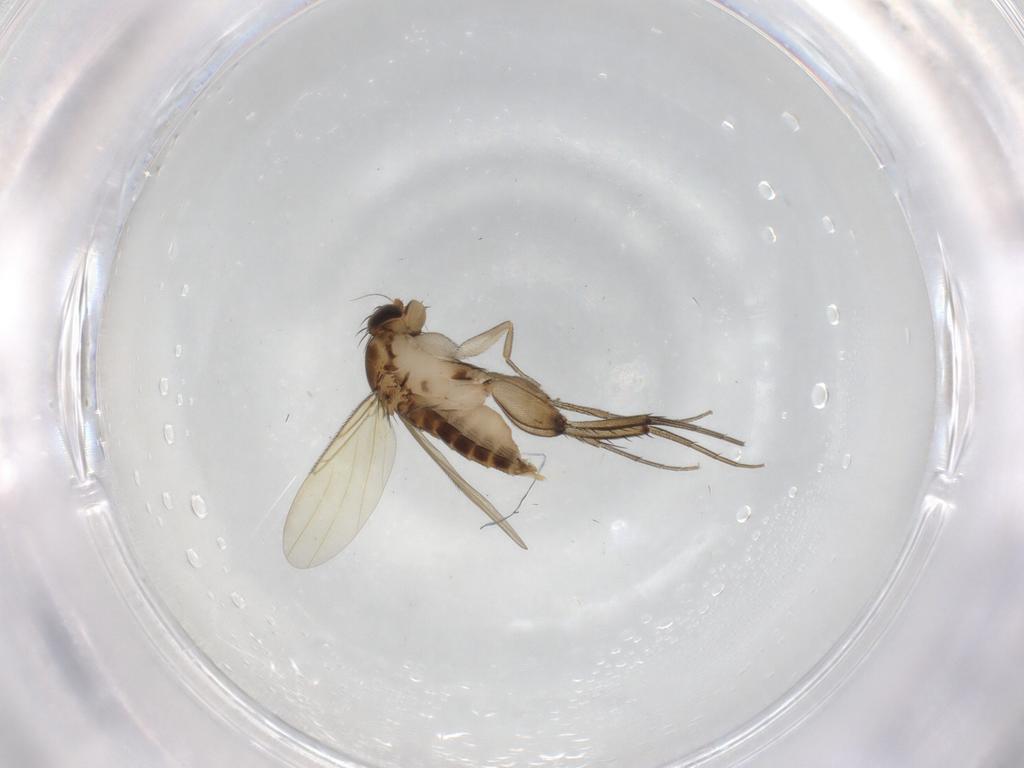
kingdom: Animalia
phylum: Arthropoda
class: Insecta
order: Diptera
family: Phoridae
